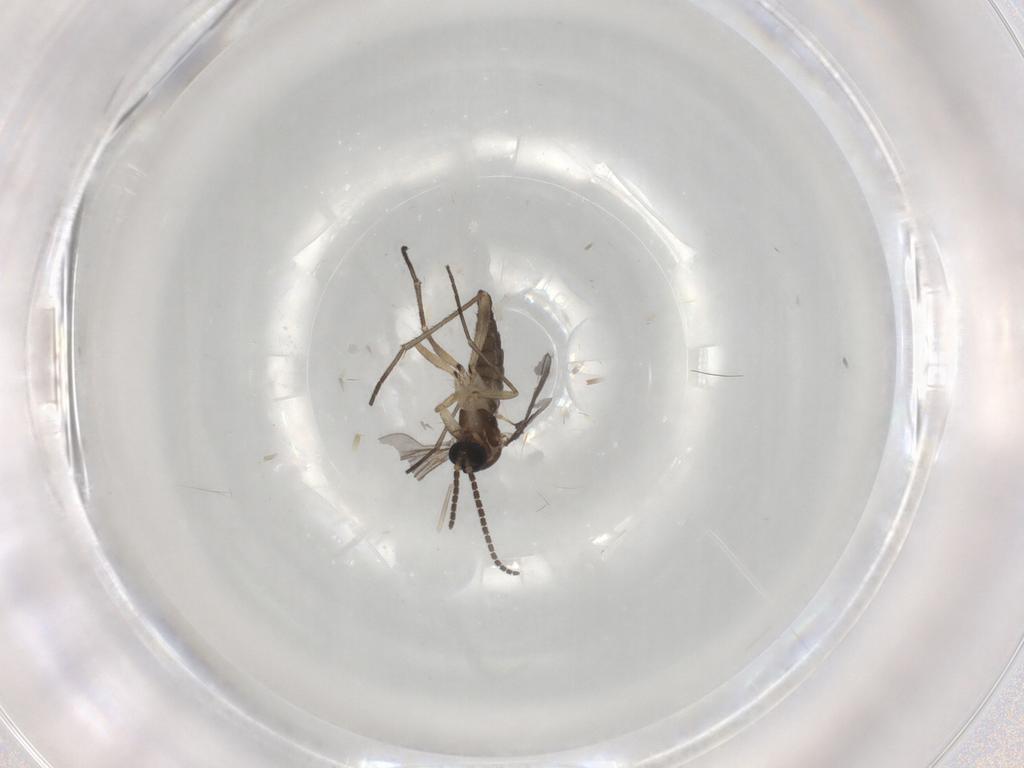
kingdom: Animalia
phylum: Arthropoda
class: Insecta
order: Diptera
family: Sciaridae
